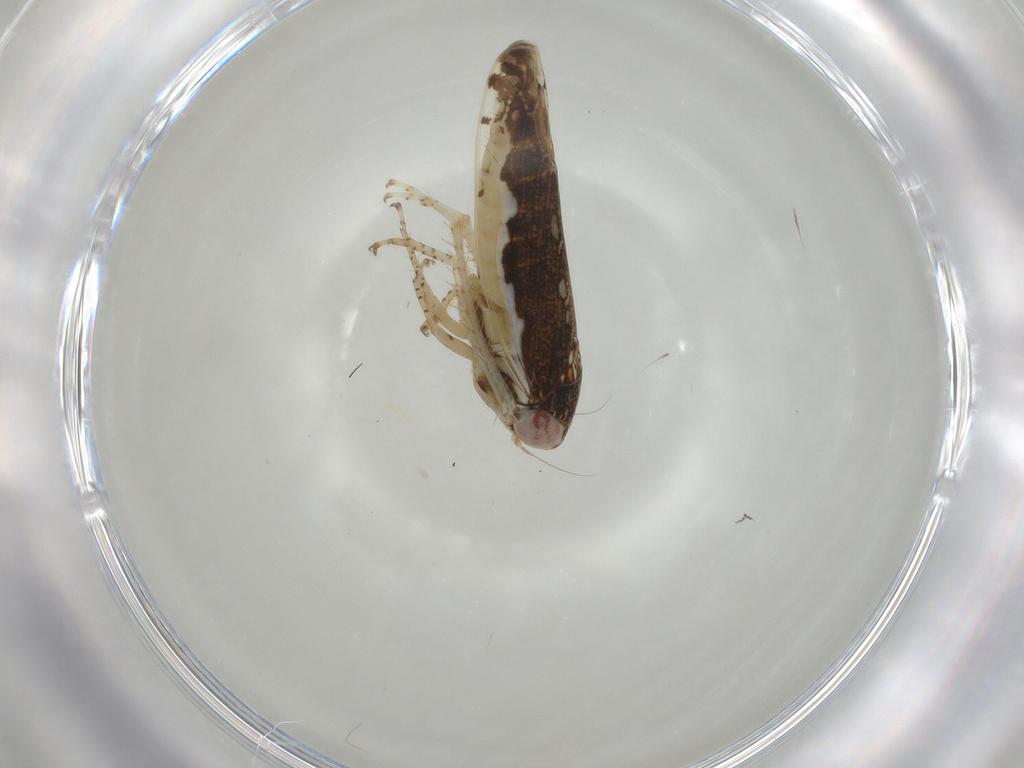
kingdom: Animalia
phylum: Arthropoda
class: Insecta
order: Hemiptera
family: Cicadellidae
